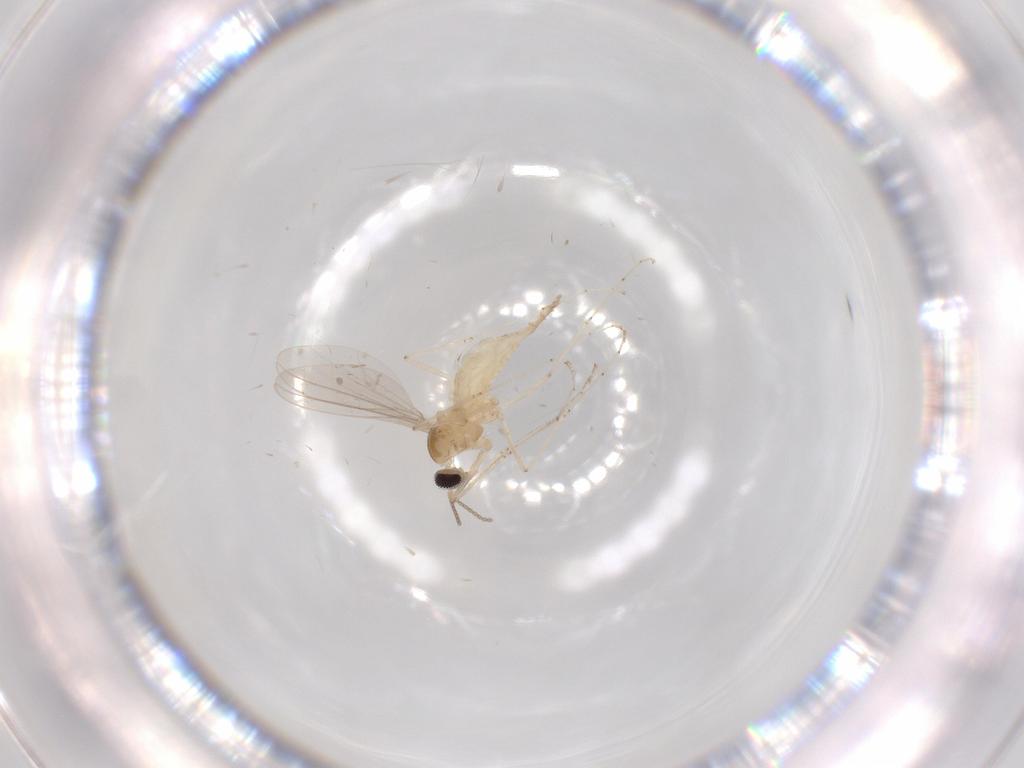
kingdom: Animalia
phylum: Arthropoda
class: Insecta
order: Diptera
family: Cecidomyiidae
